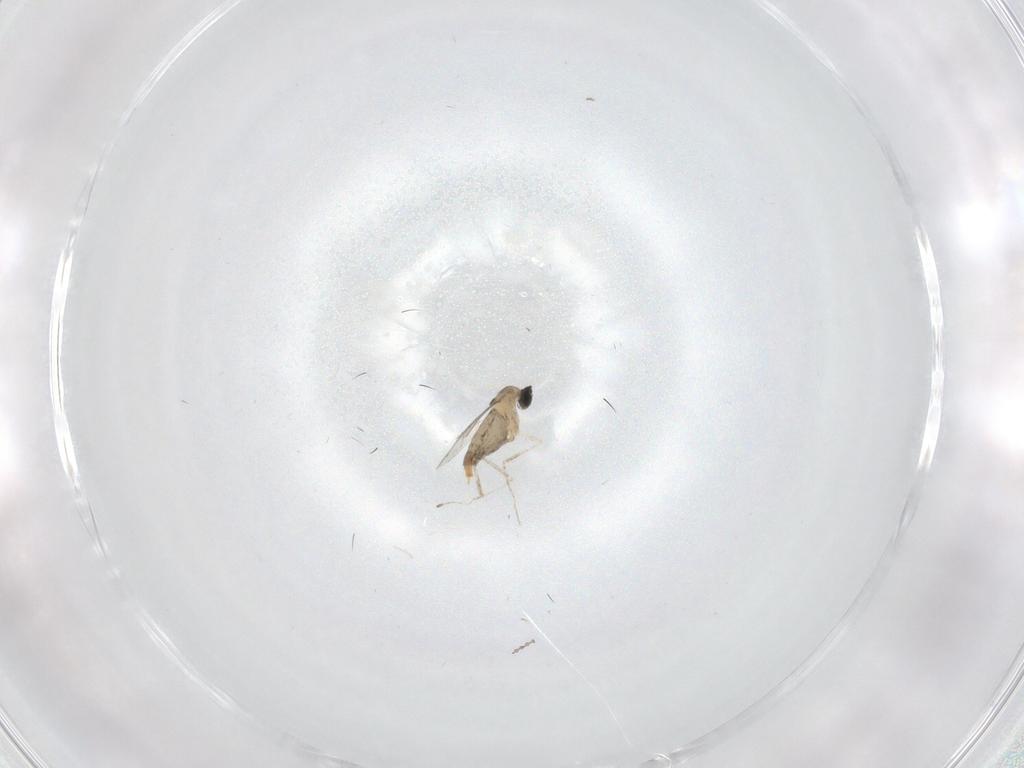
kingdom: Animalia
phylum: Arthropoda
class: Insecta
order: Diptera
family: Cecidomyiidae
